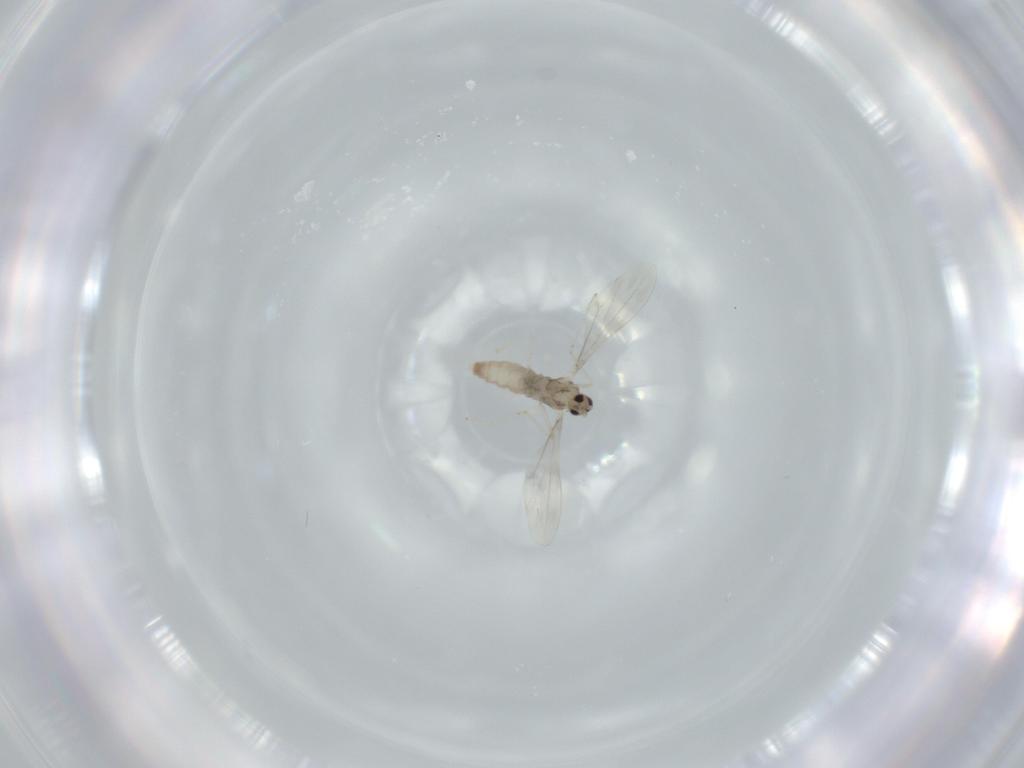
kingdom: Animalia
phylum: Arthropoda
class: Insecta
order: Diptera
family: Cecidomyiidae
